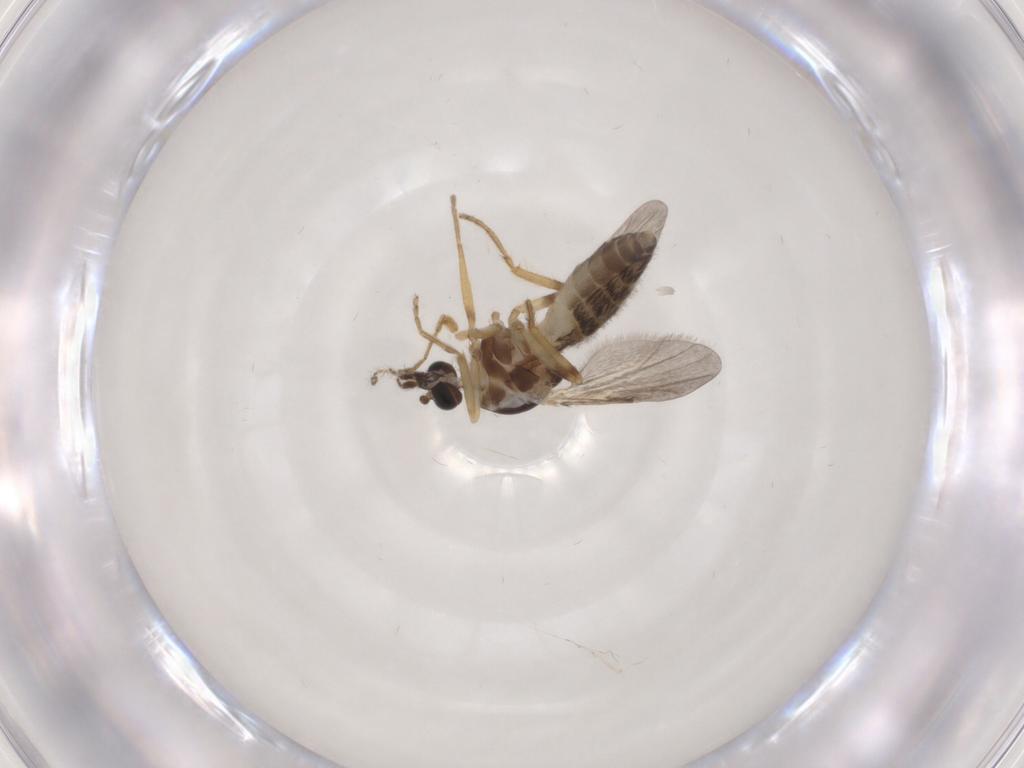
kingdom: Animalia
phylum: Arthropoda
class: Insecta
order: Diptera
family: Ceratopogonidae
